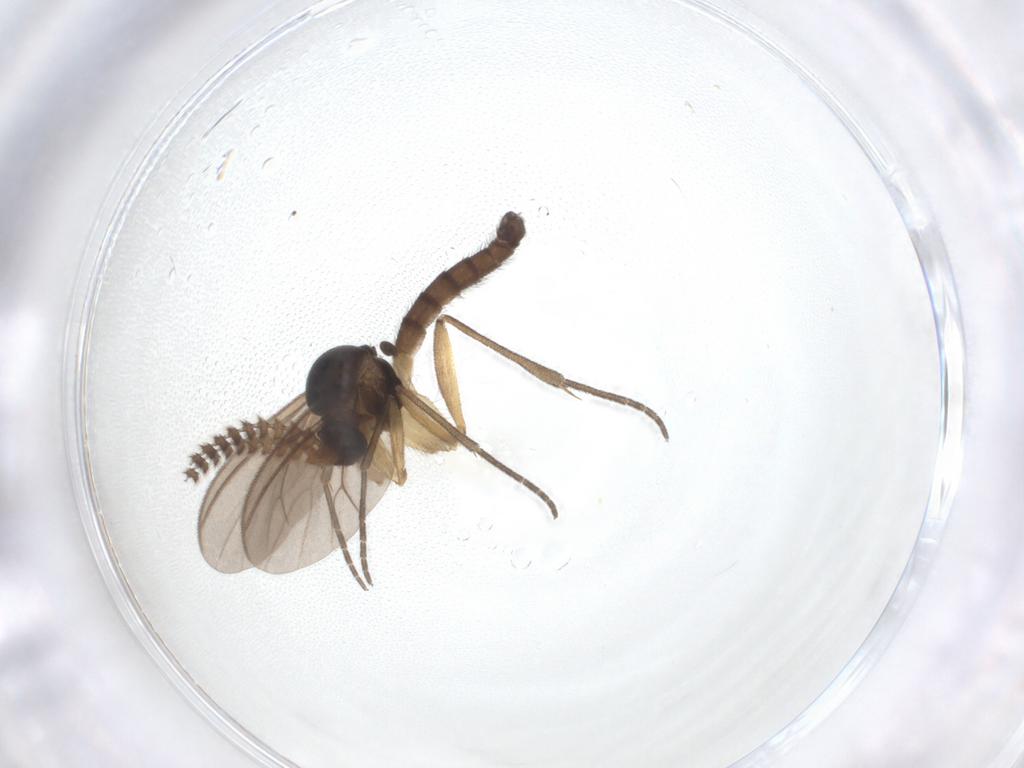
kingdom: Animalia
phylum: Arthropoda
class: Insecta
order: Diptera
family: Mycetophilidae
